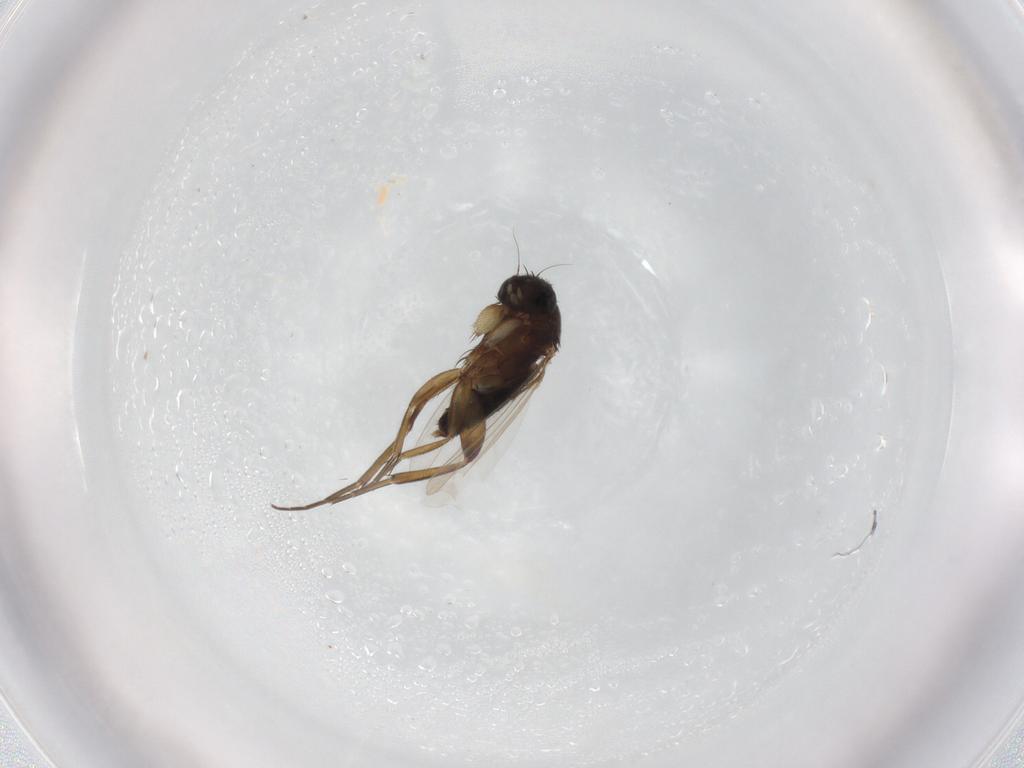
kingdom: Animalia
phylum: Arthropoda
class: Insecta
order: Diptera
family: Phoridae
